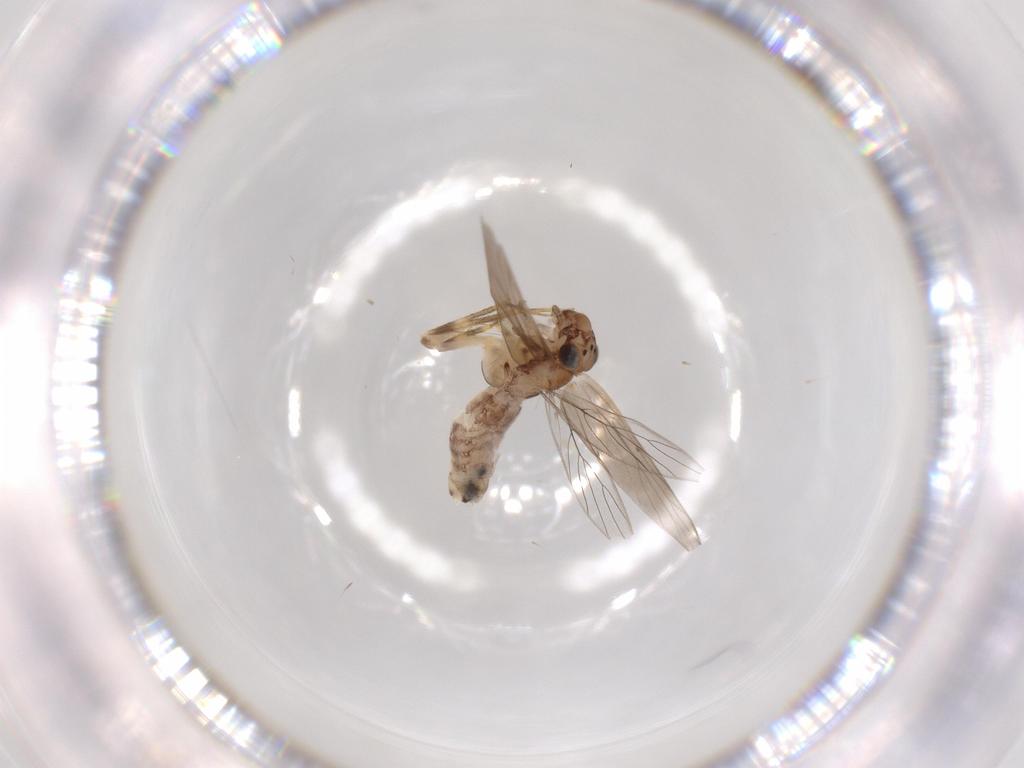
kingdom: Animalia
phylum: Arthropoda
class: Insecta
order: Psocodea
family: Lepidopsocidae
